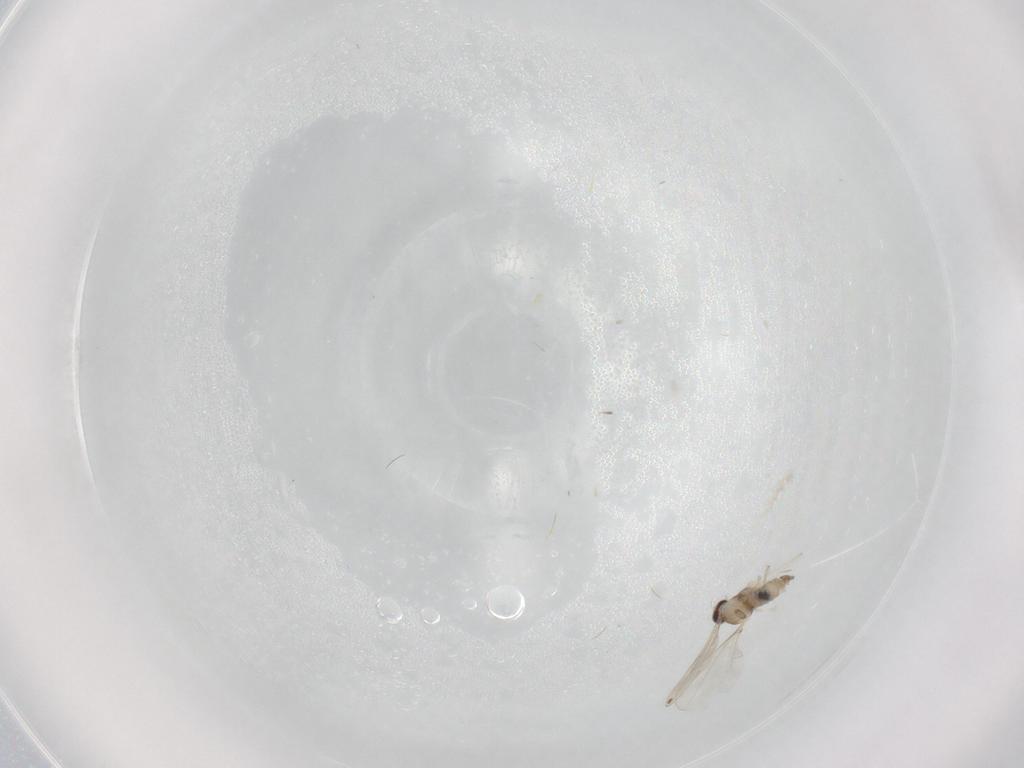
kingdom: Animalia
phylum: Arthropoda
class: Insecta
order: Diptera
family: Cecidomyiidae
